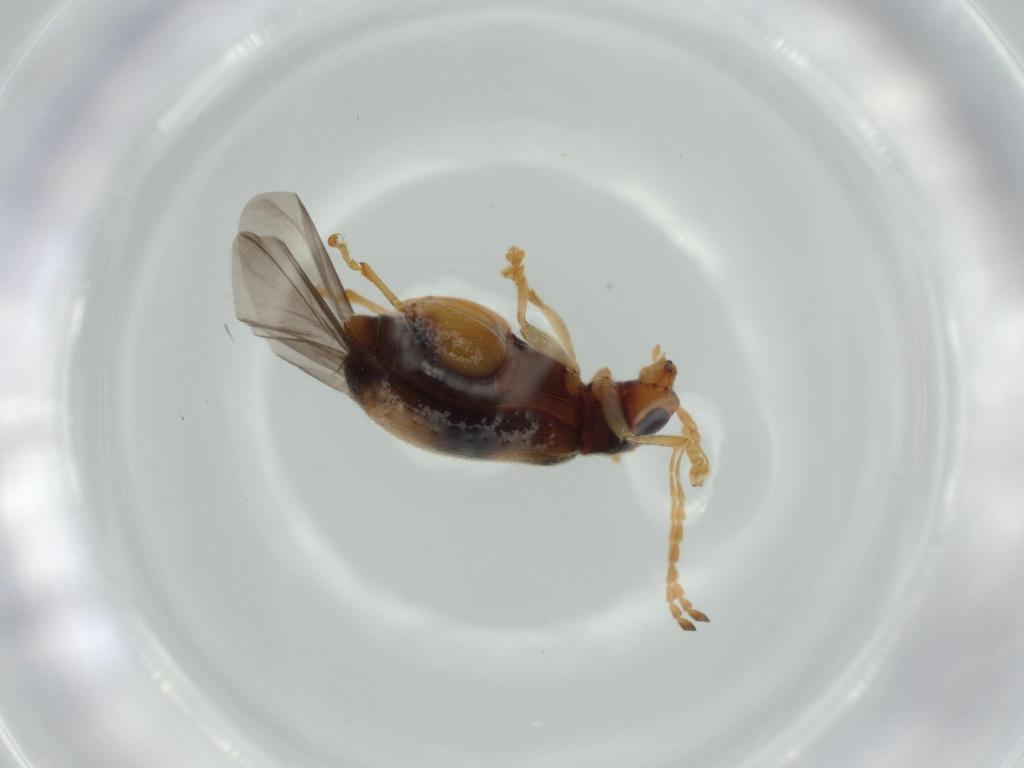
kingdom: Animalia
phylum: Arthropoda
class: Insecta
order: Coleoptera
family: Chrysomelidae
